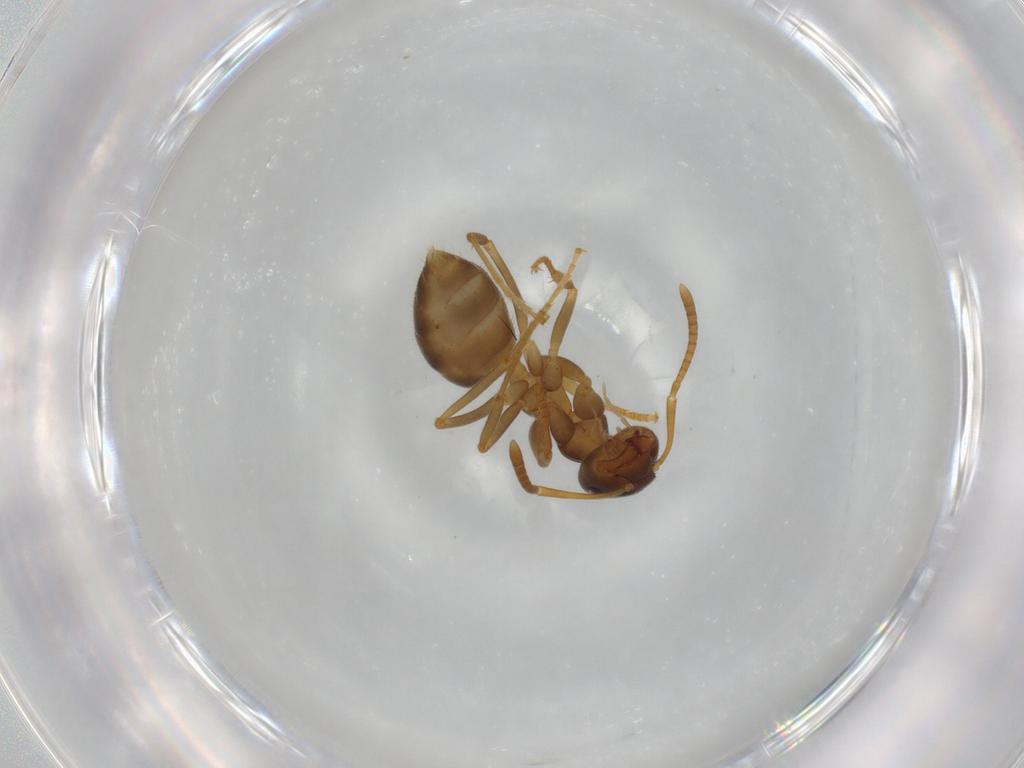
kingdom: Animalia
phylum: Arthropoda
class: Insecta
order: Hymenoptera
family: Formicidae
